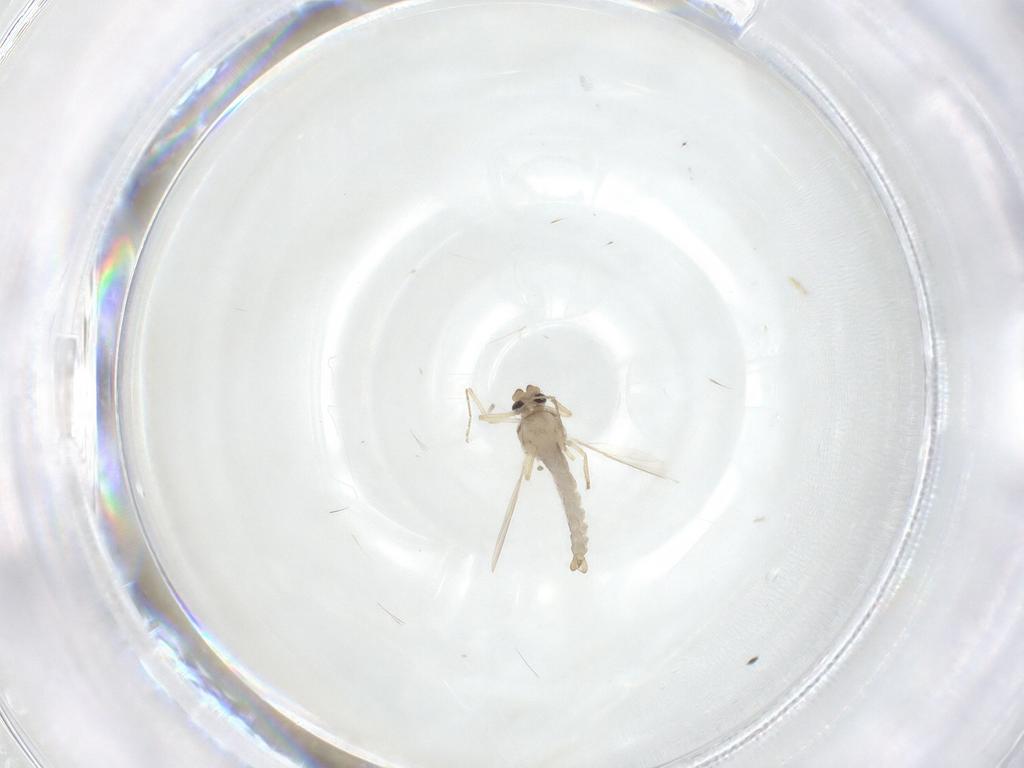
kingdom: Animalia
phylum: Arthropoda
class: Insecta
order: Diptera
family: Ceratopogonidae
